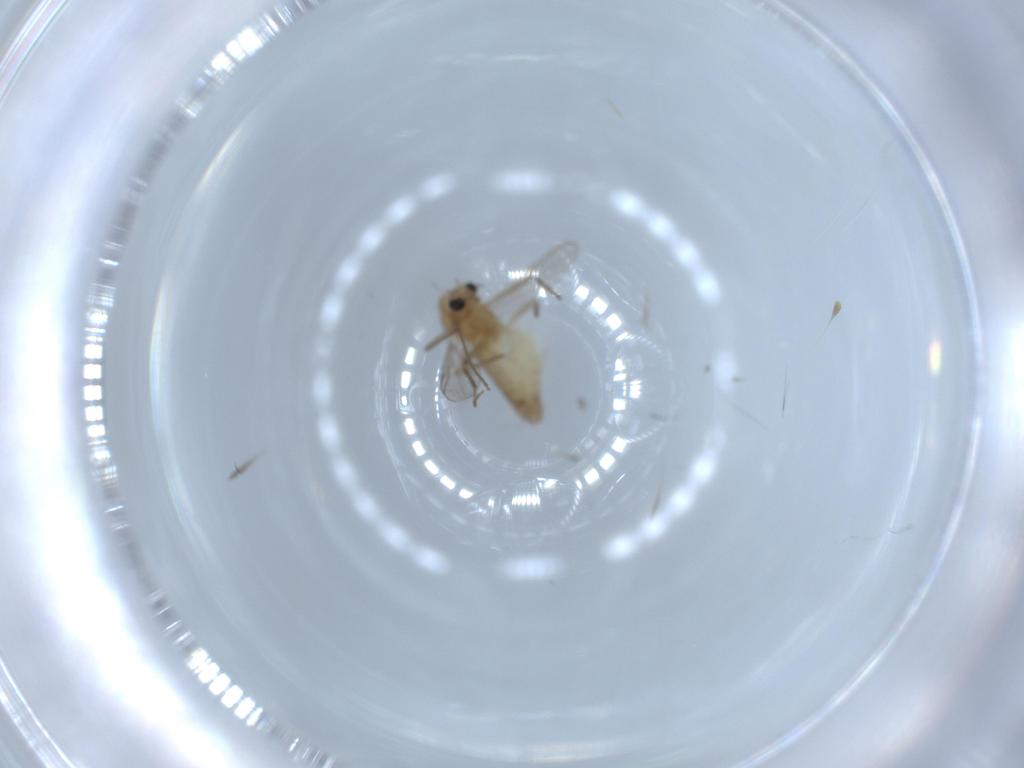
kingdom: Animalia
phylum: Arthropoda
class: Insecta
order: Diptera
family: Chironomidae
